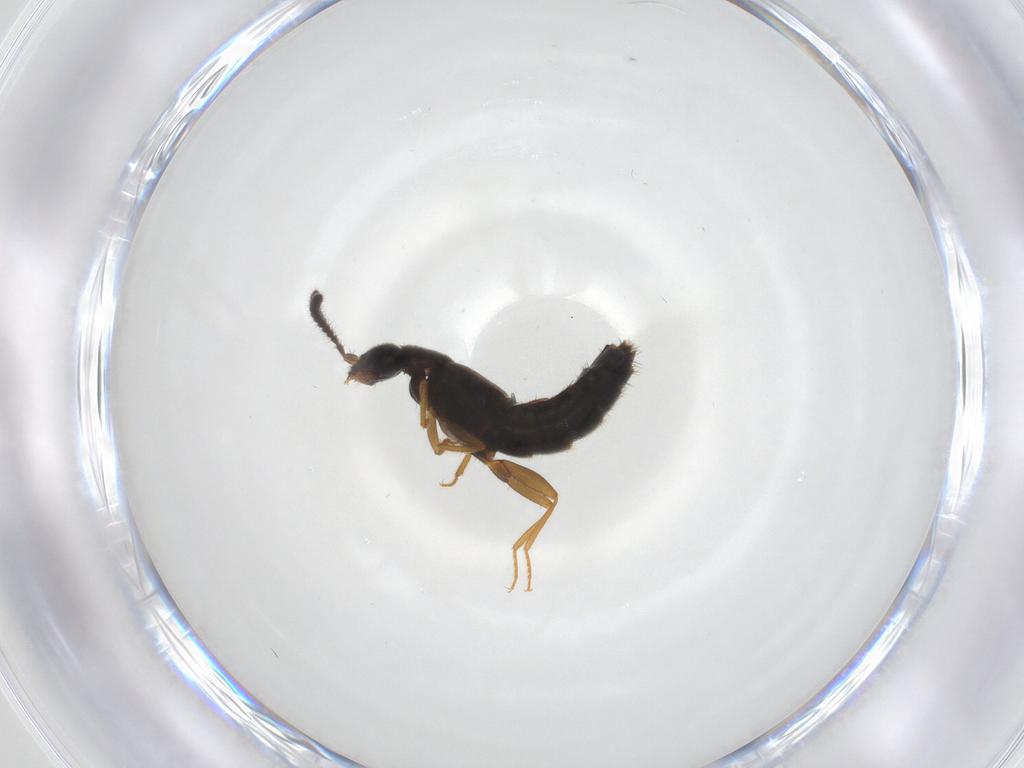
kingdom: Animalia
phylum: Arthropoda
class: Insecta
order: Coleoptera
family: Staphylinidae
